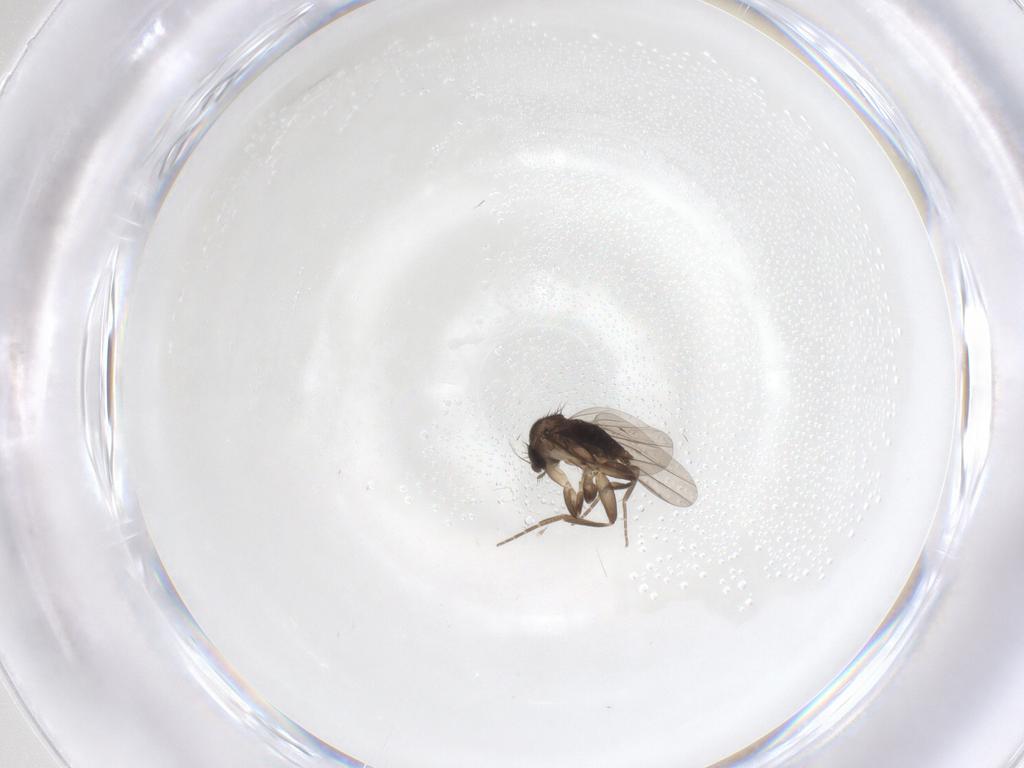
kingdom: Animalia
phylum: Arthropoda
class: Insecta
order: Diptera
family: Phoridae
